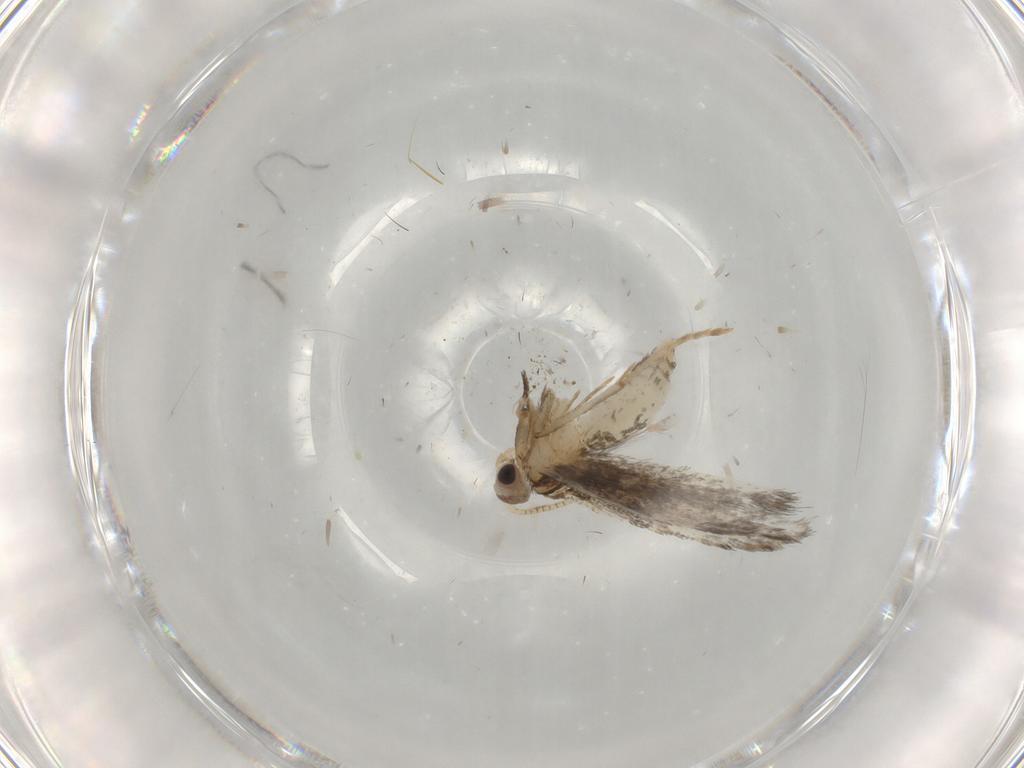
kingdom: Animalia
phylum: Arthropoda
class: Insecta
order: Lepidoptera
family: Tineidae
